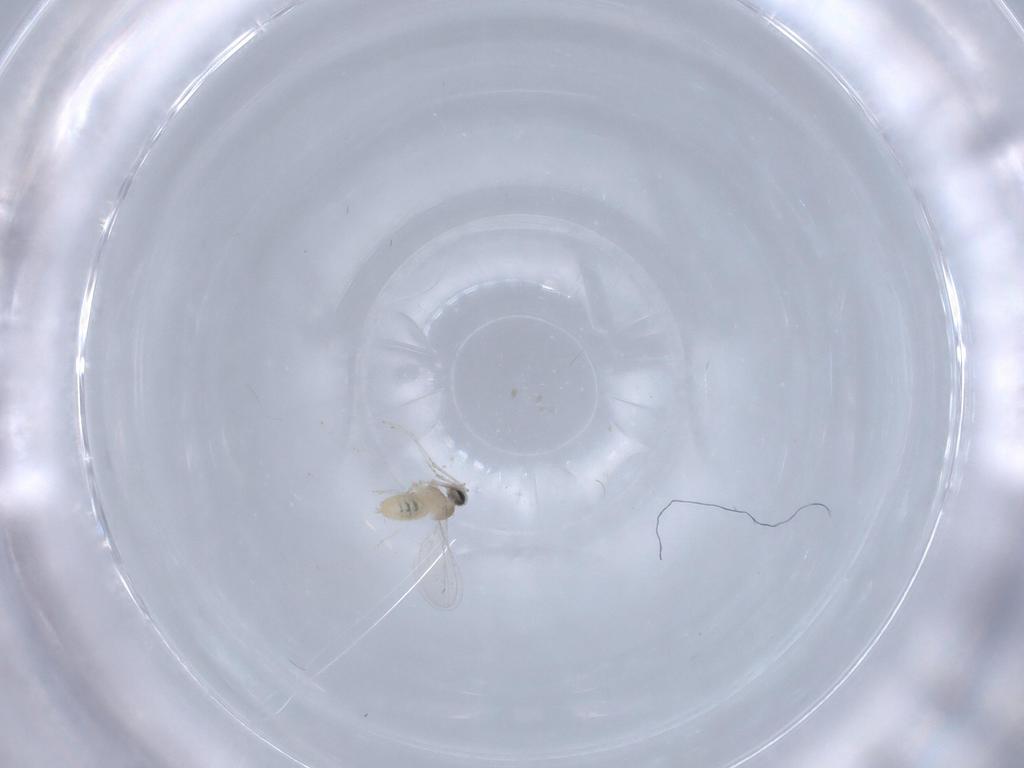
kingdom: Animalia
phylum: Arthropoda
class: Insecta
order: Diptera
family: Cecidomyiidae
